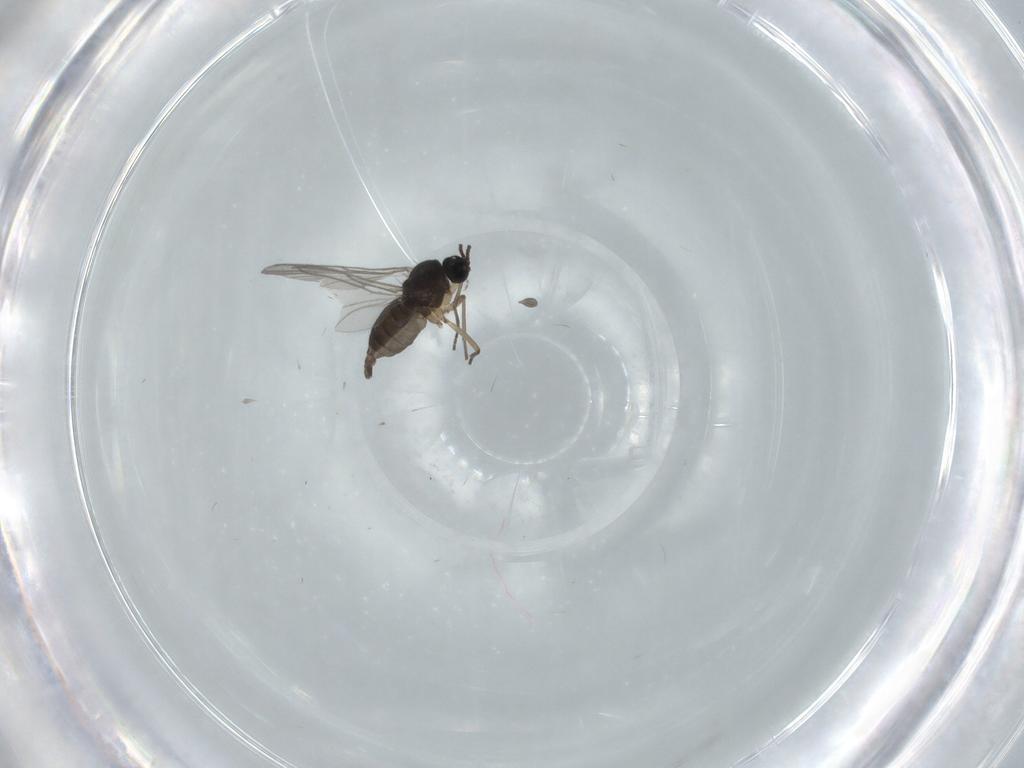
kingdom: Animalia
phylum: Arthropoda
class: Insecta
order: Diptera
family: Sciaridae
